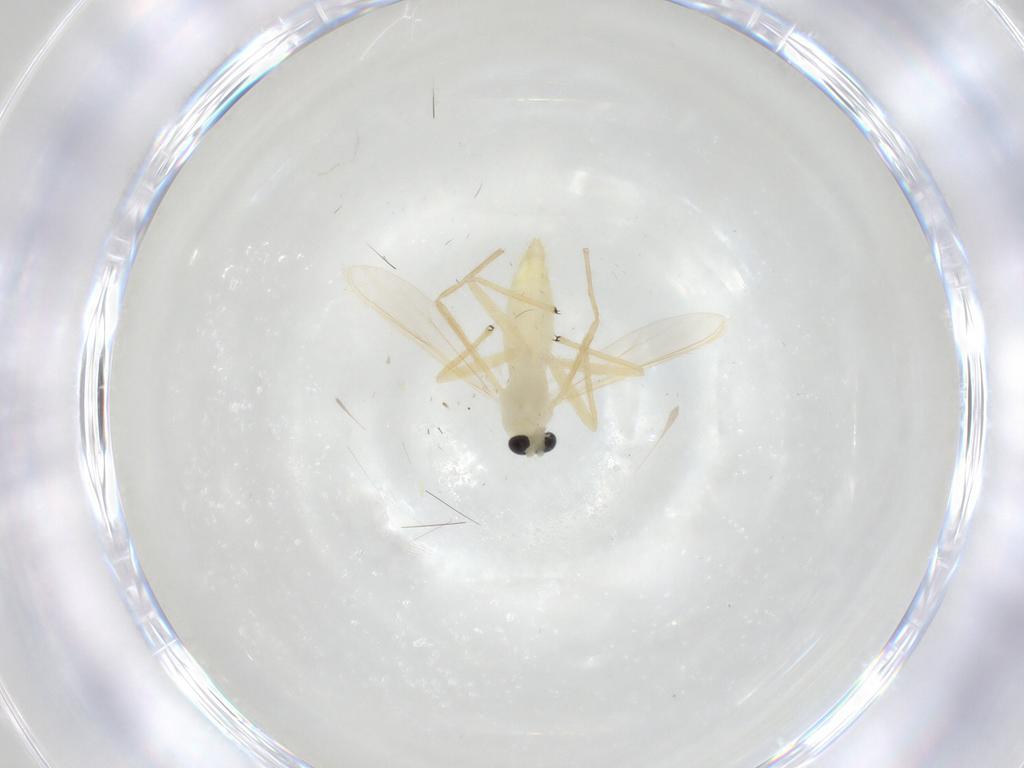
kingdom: Animalia
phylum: Arthropoda
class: Insecta
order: Diptera
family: Chironomidae
